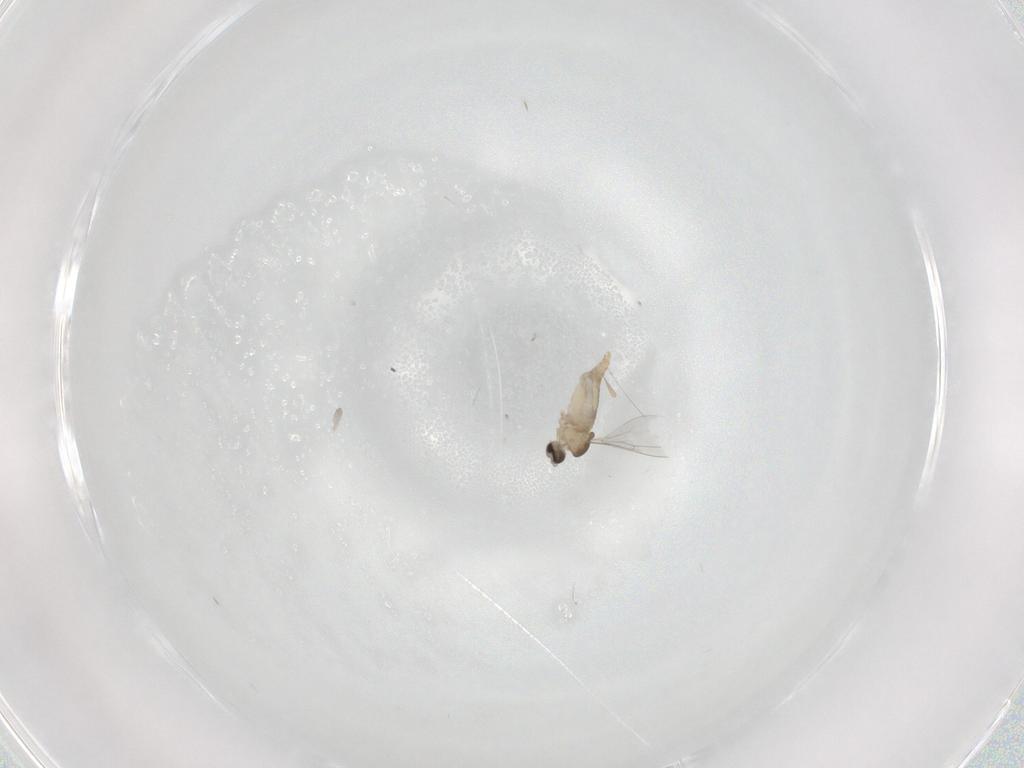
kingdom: Animalia
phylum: Arthropoda
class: Insecta
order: Diptera
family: Cecidomyiidae
